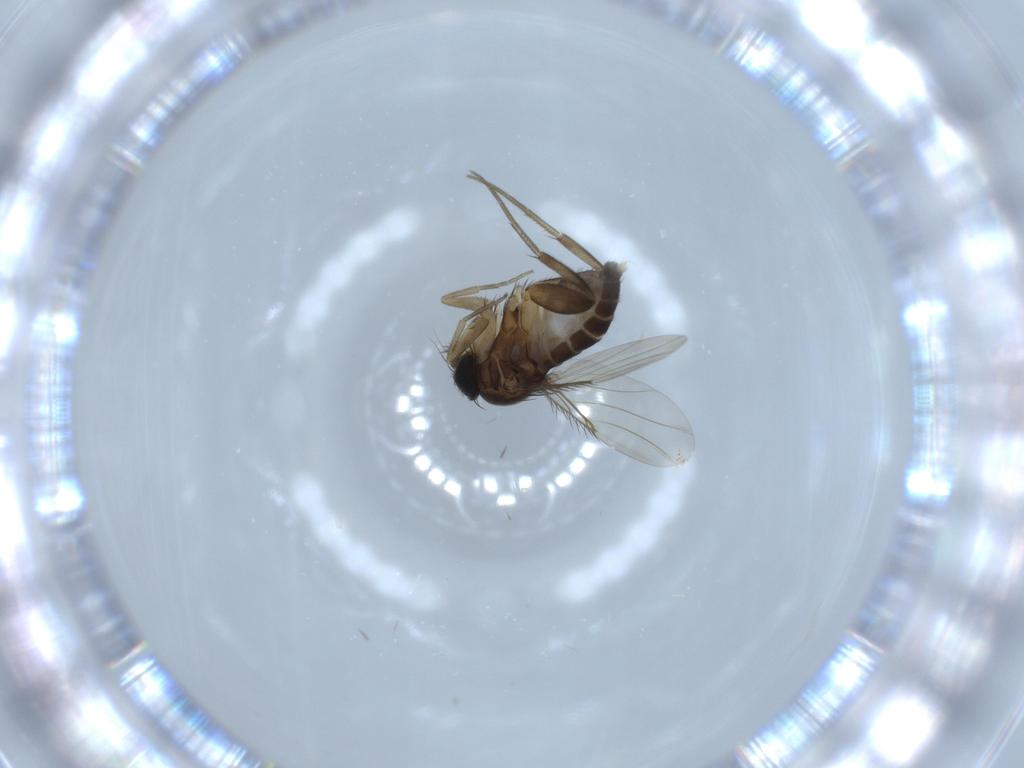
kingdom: Animalia
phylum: Arthropoda
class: Insecta
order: Diptera
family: Phoridae
